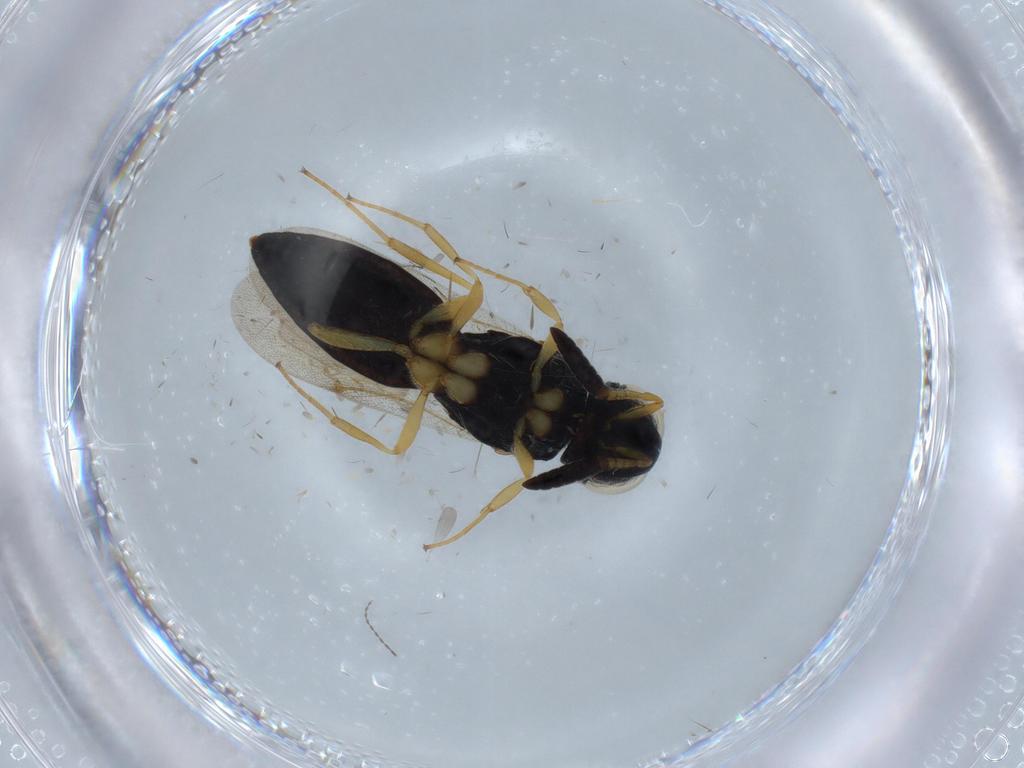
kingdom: Animalia
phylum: Arthropoda
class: Insecta
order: Hymenoptera
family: Scelionidae
